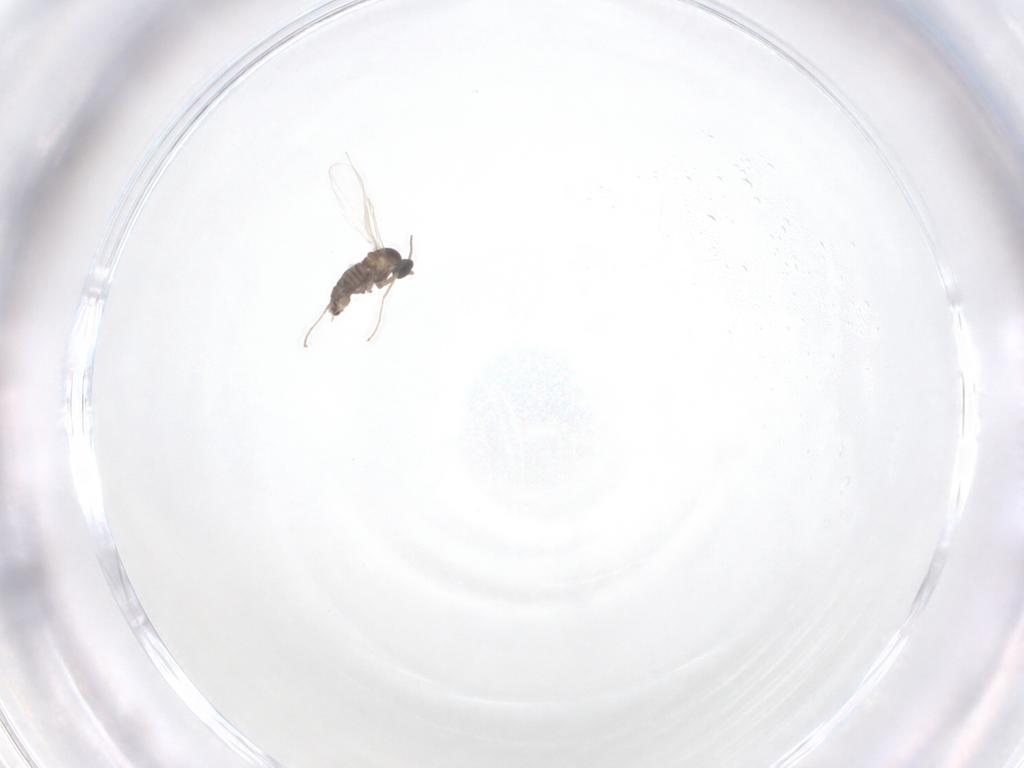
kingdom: Animalia
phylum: Arthropoda
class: Insecta
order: Diptera
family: Cecidomyiidae
